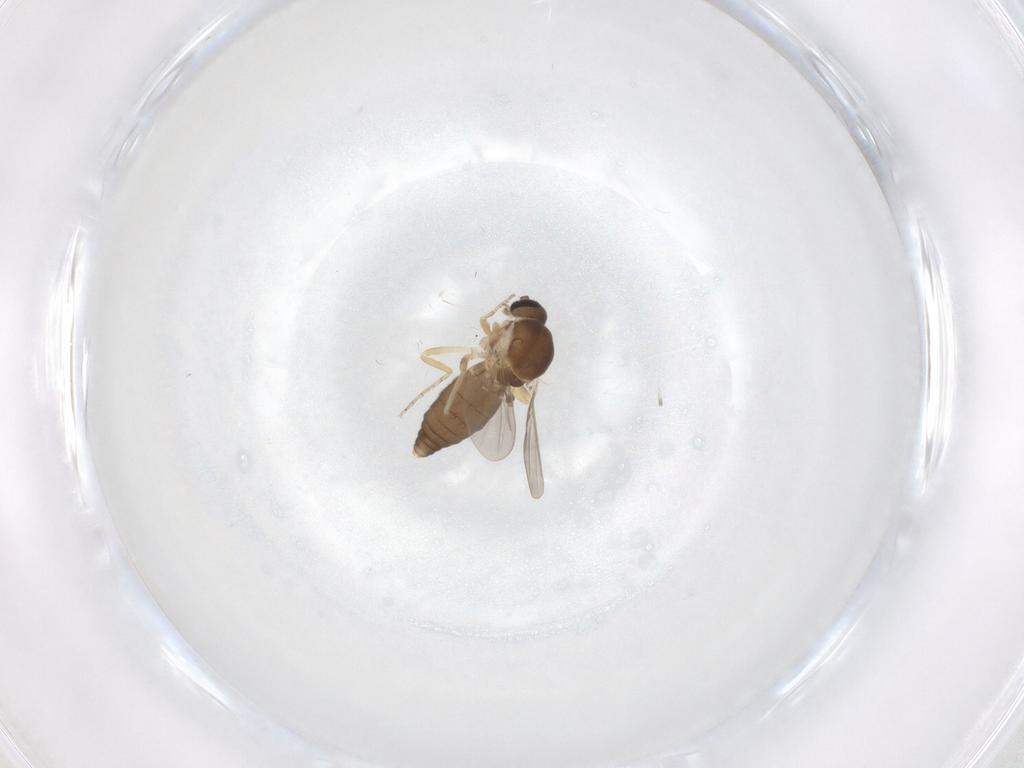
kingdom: Animalia
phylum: Arthropoda
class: Insecta
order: Diptera
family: Ceratopogonidae
